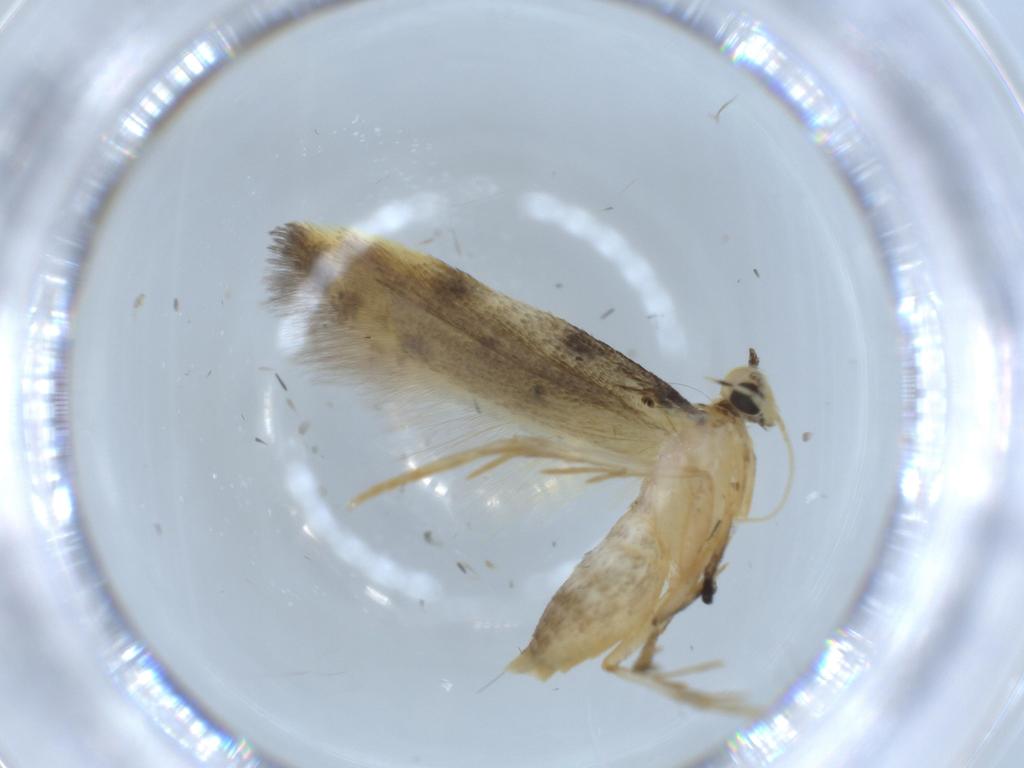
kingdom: Animalia
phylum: Arthropoda
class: Insecta
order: Lepidoptera
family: Autostichidae
